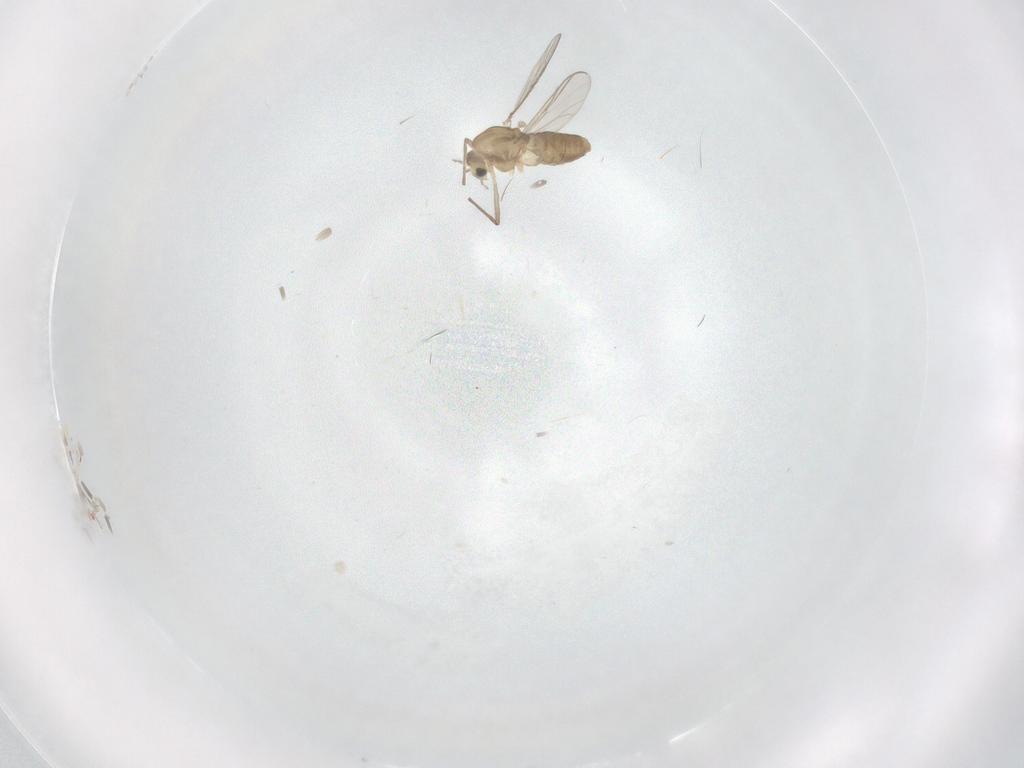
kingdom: Animalia
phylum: Arthropoda
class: Insecta
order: Diptera
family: Chironomidae
